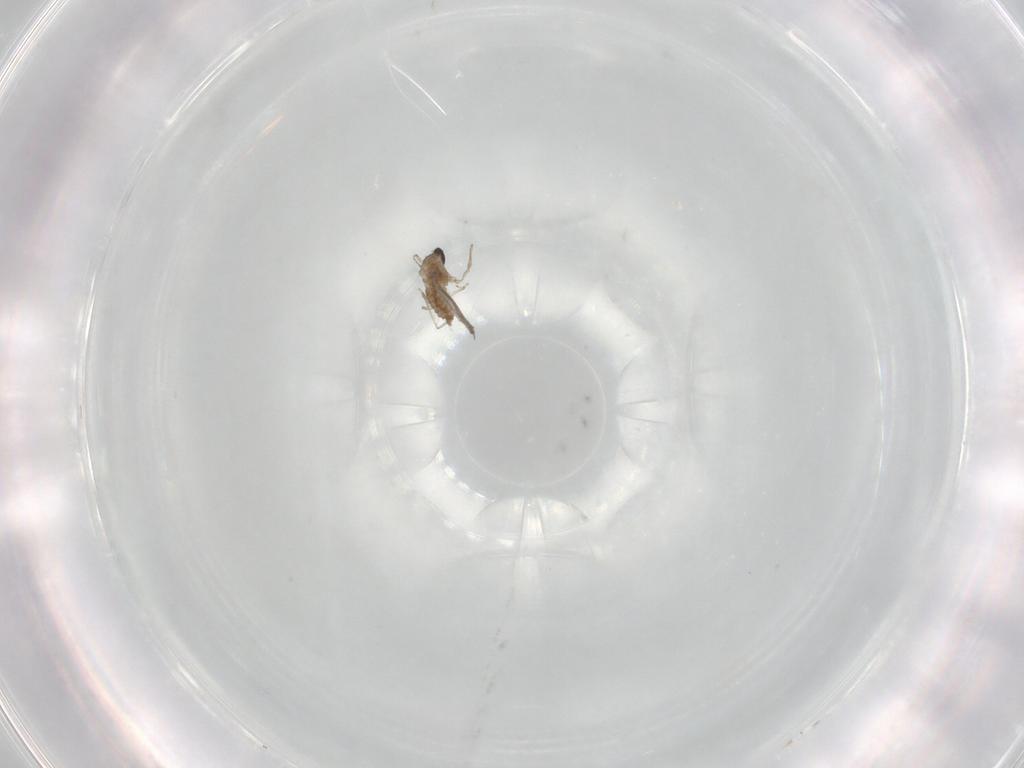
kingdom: Animalia
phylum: Arthropoda
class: Insecta
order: Diptera
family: Cecidomyiidae
